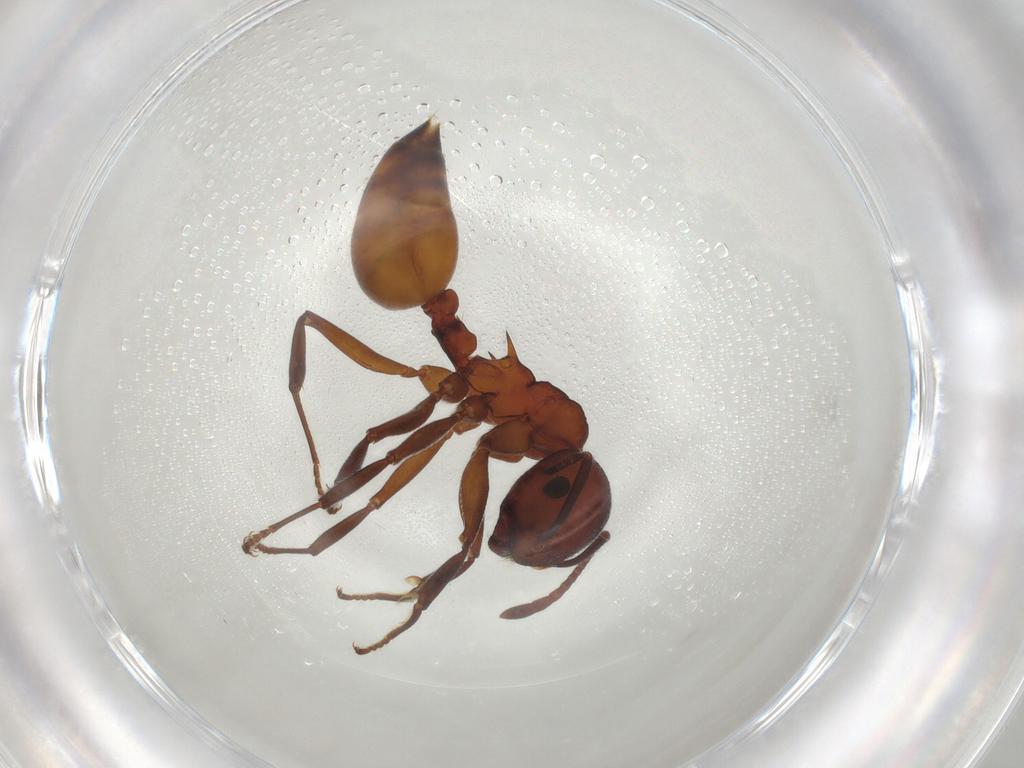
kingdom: Animalia
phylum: Arthropoda
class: Insecta
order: Hymenoptera
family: Formicidae
